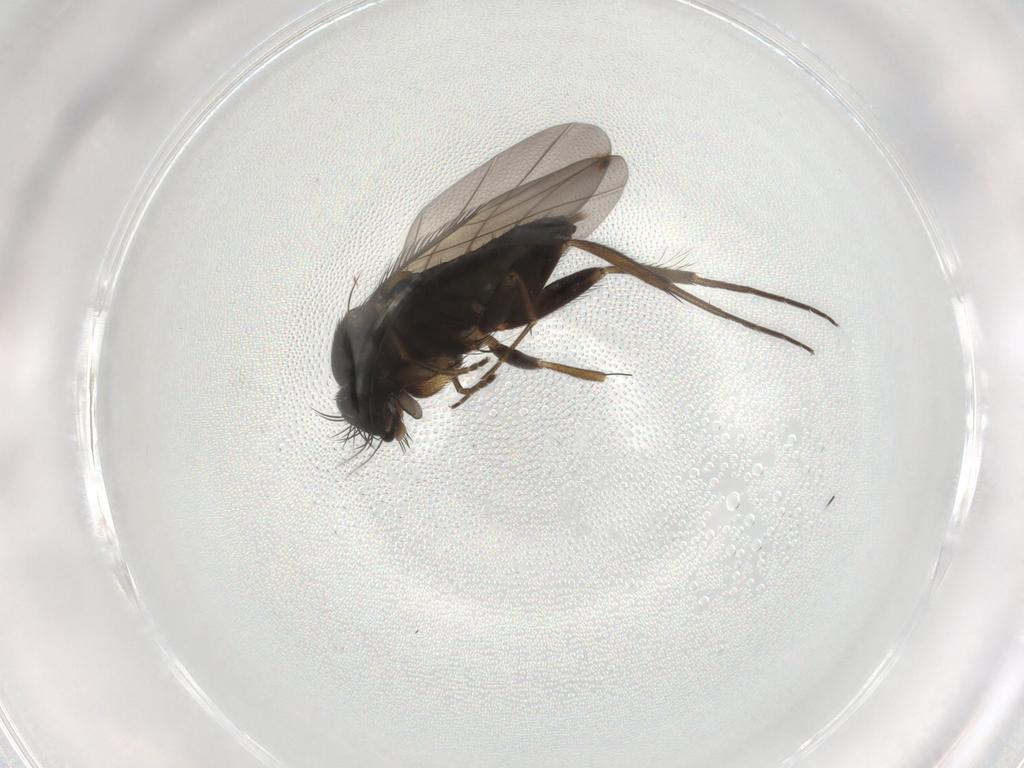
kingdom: Animalia
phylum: Arthropoda
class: Insecta
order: Diptera
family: Phoridae
